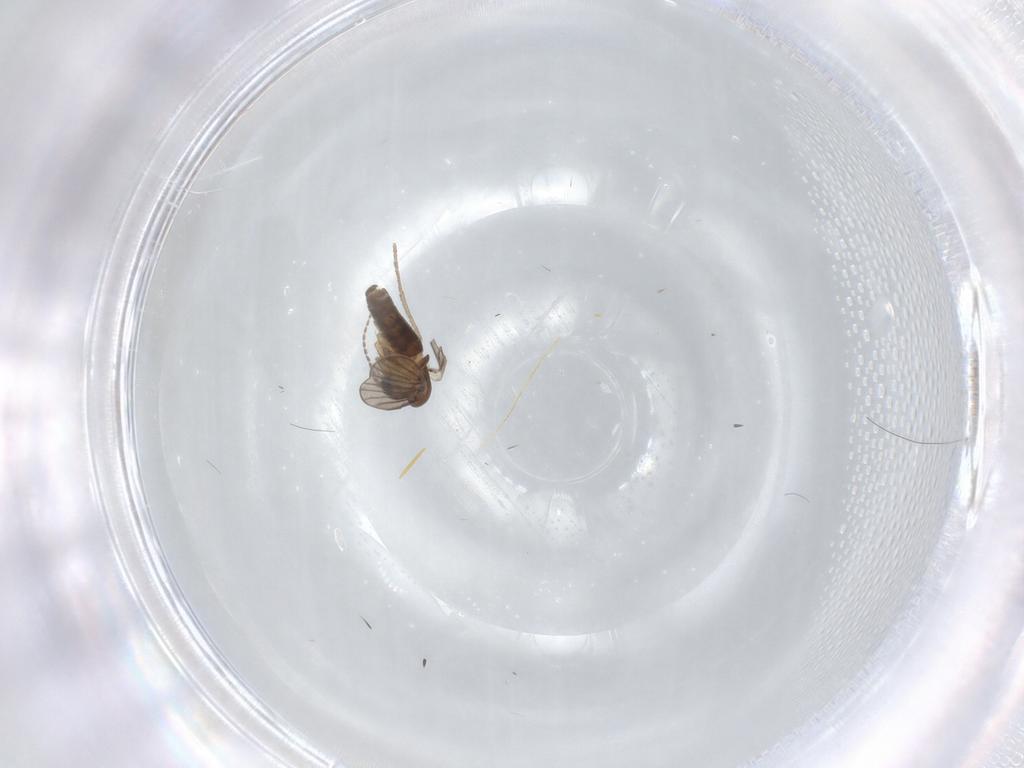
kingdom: Animalia
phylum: Arthropoda
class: Insecta
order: Diptera
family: Psychodidae
